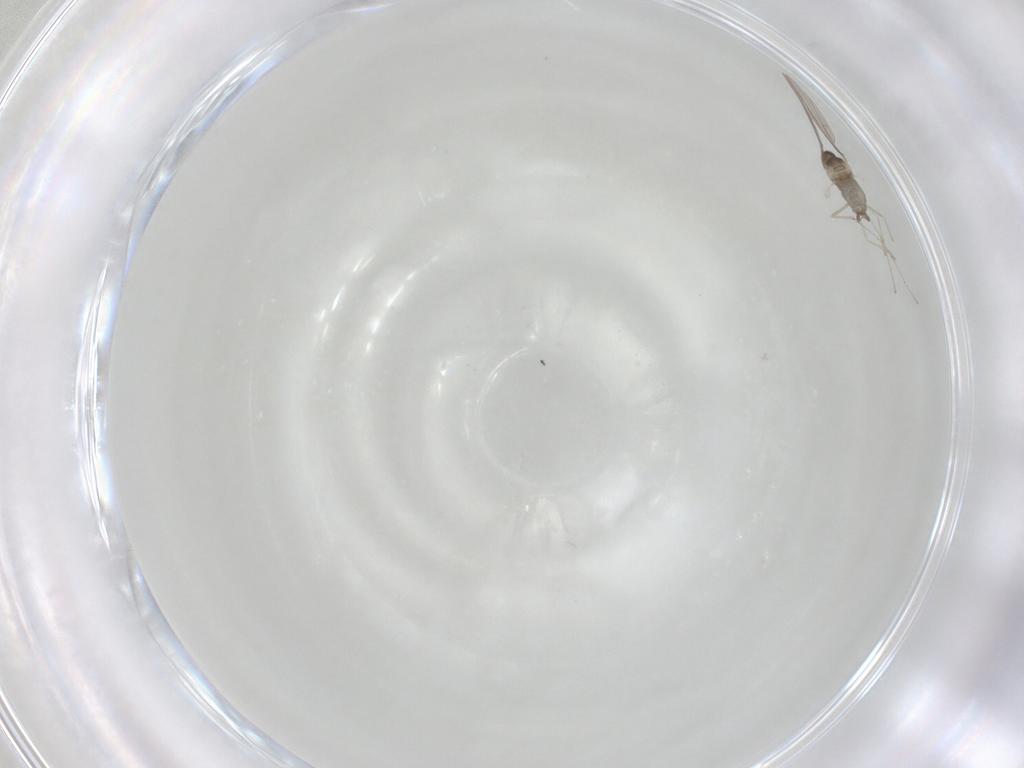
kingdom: Animalia
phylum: Arthropoda
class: Insecta
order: Diptera
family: Cecidomyiidae
